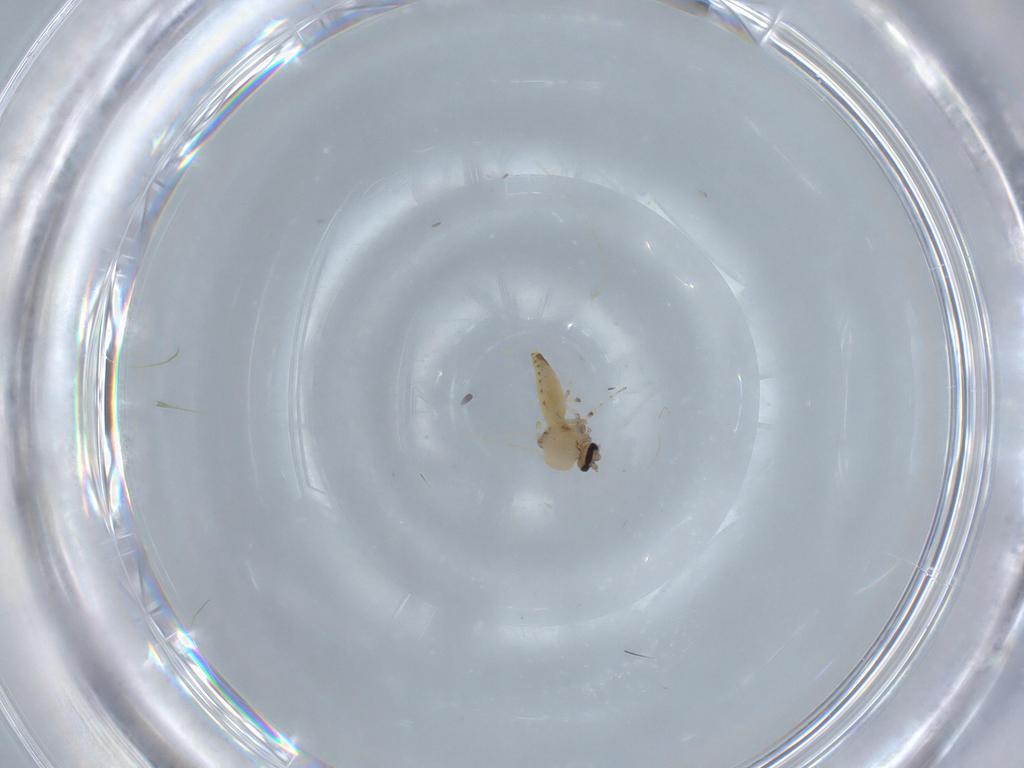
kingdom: Animalia
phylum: Arthropoda
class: Insecta
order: Diptera
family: Ceratopogonidae
